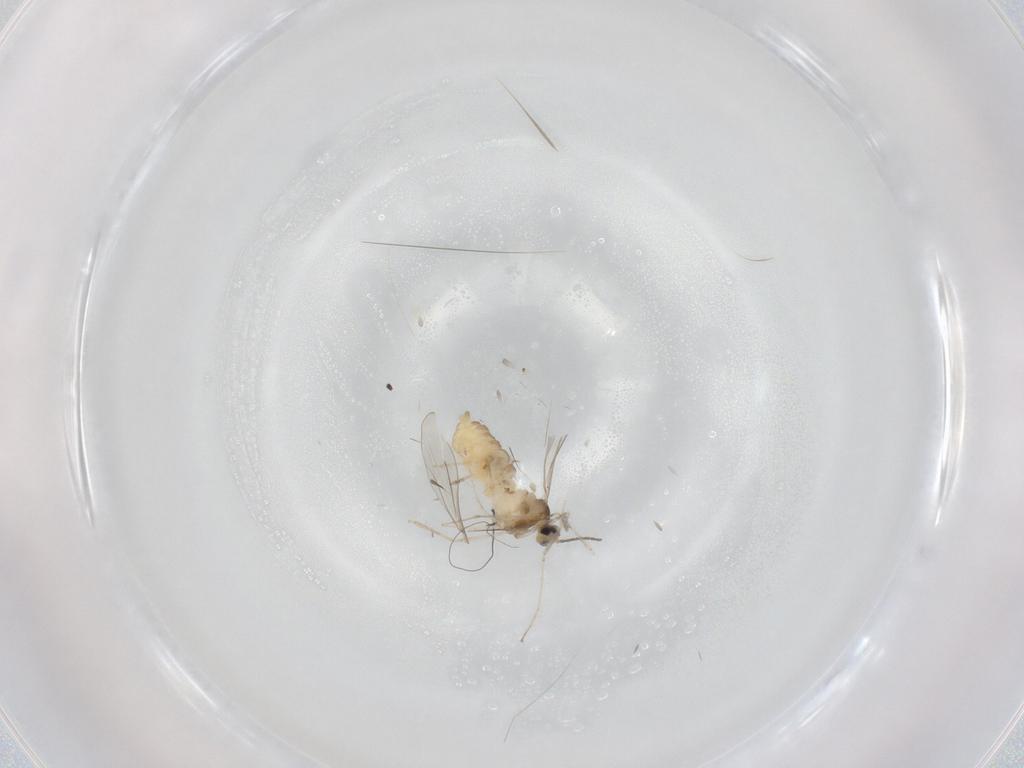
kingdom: Animalia
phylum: Arthropoda
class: Insecta
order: Diptera
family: Cecidomyiidae
